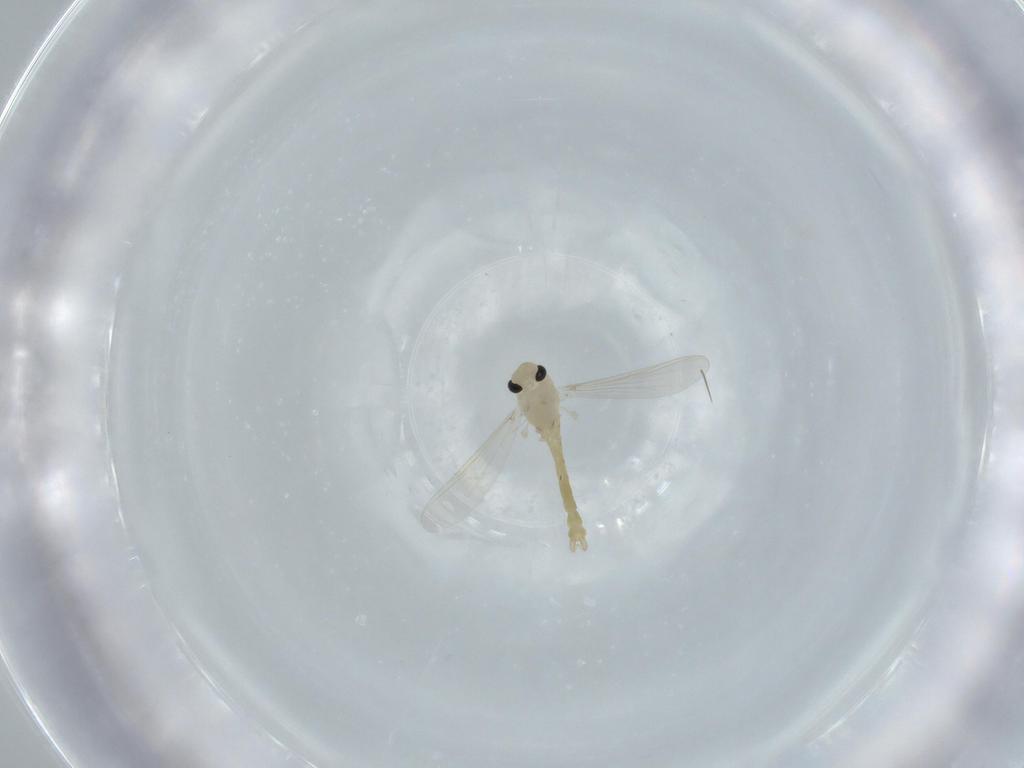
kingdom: Animalia
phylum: Arthropoda
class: Insecta
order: Diptera
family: Chironomidae
